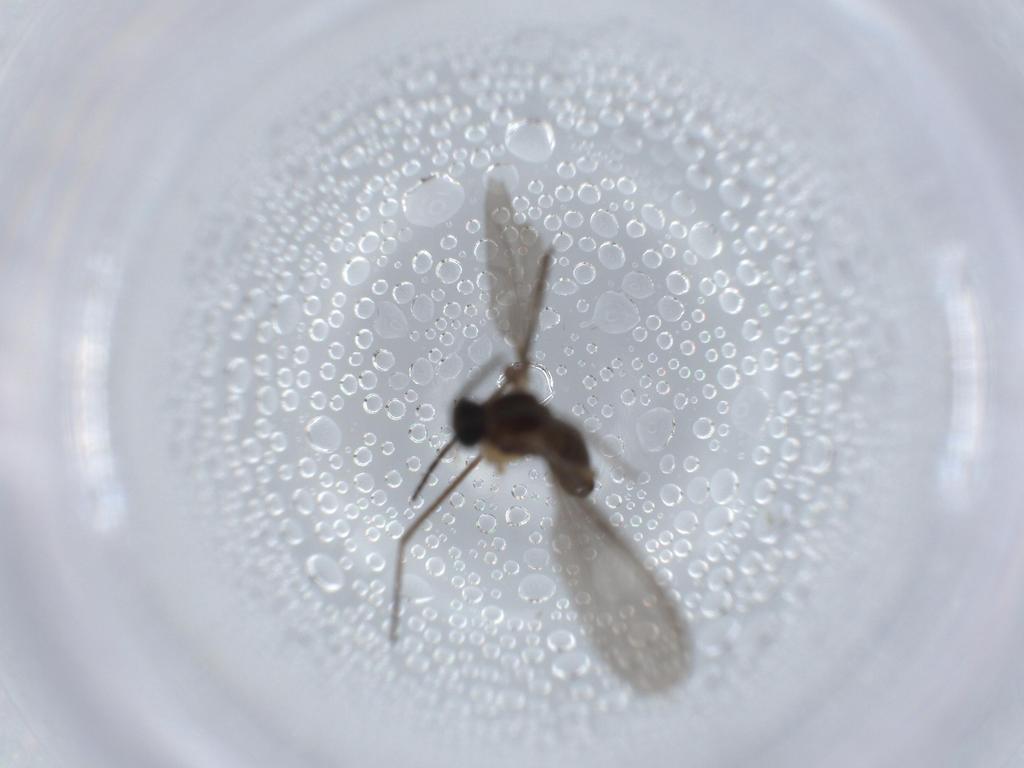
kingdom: Animalia
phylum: Arthropoda
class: Insecta
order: Diptera
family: Sciaridae
